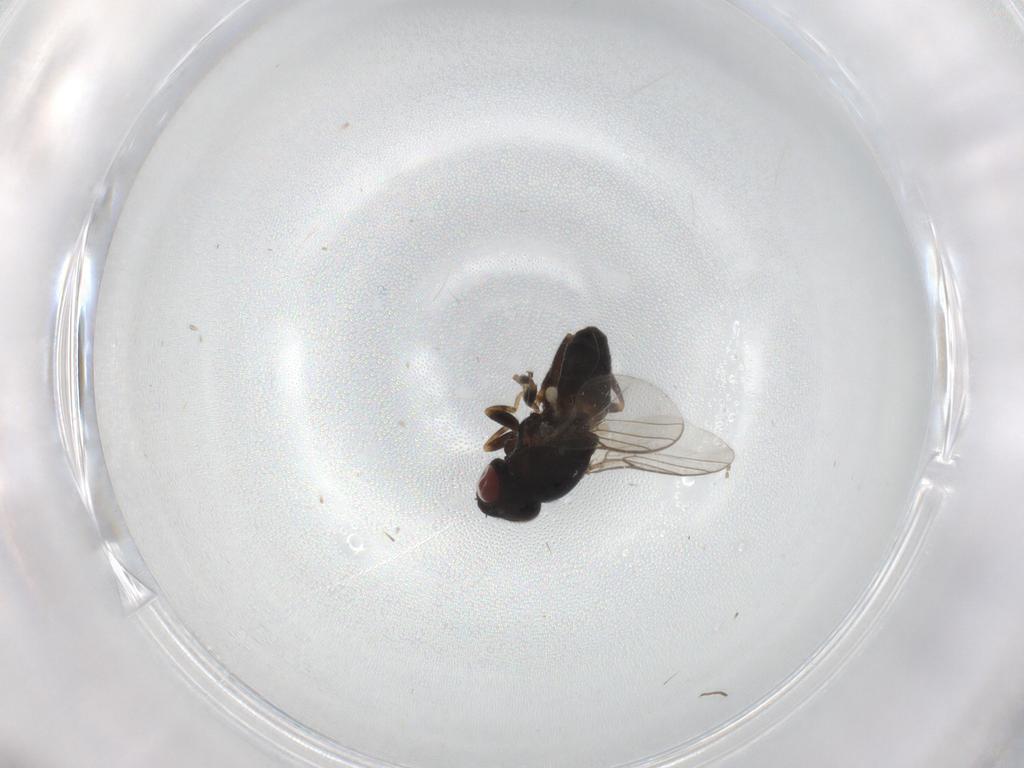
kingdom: Animalia
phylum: Arthropoda
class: Insecta
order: Diptera
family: Chloropidae
